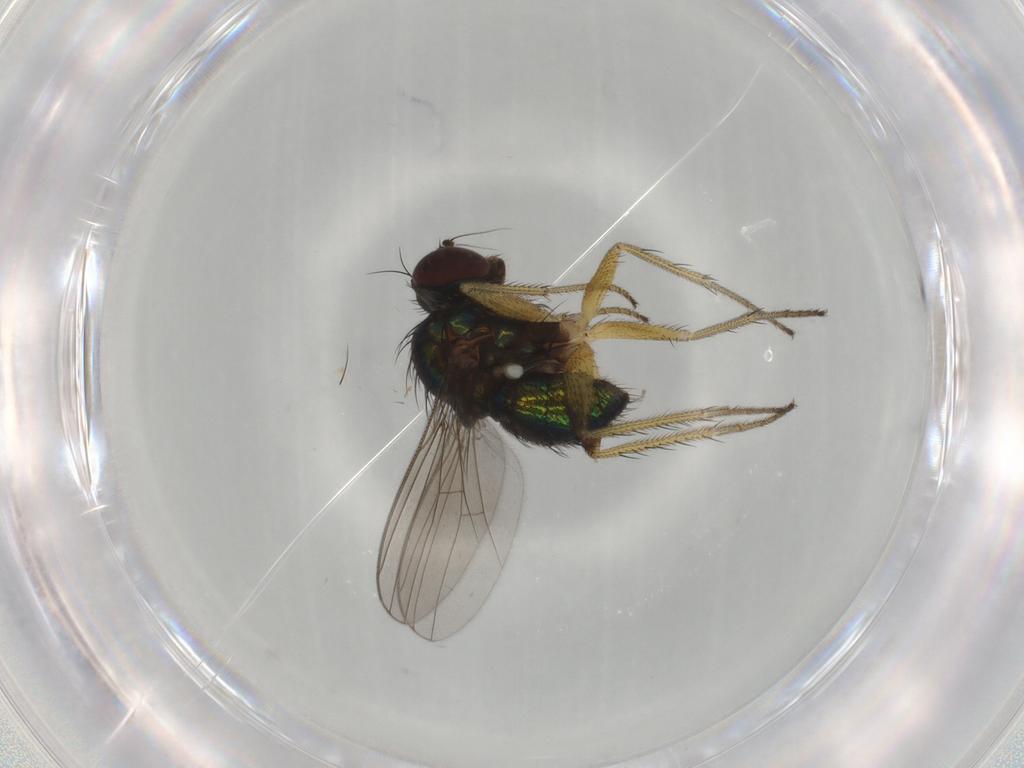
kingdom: Animalia
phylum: Arthropoda
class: Insecta
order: Diptera
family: Dolichopodidae
